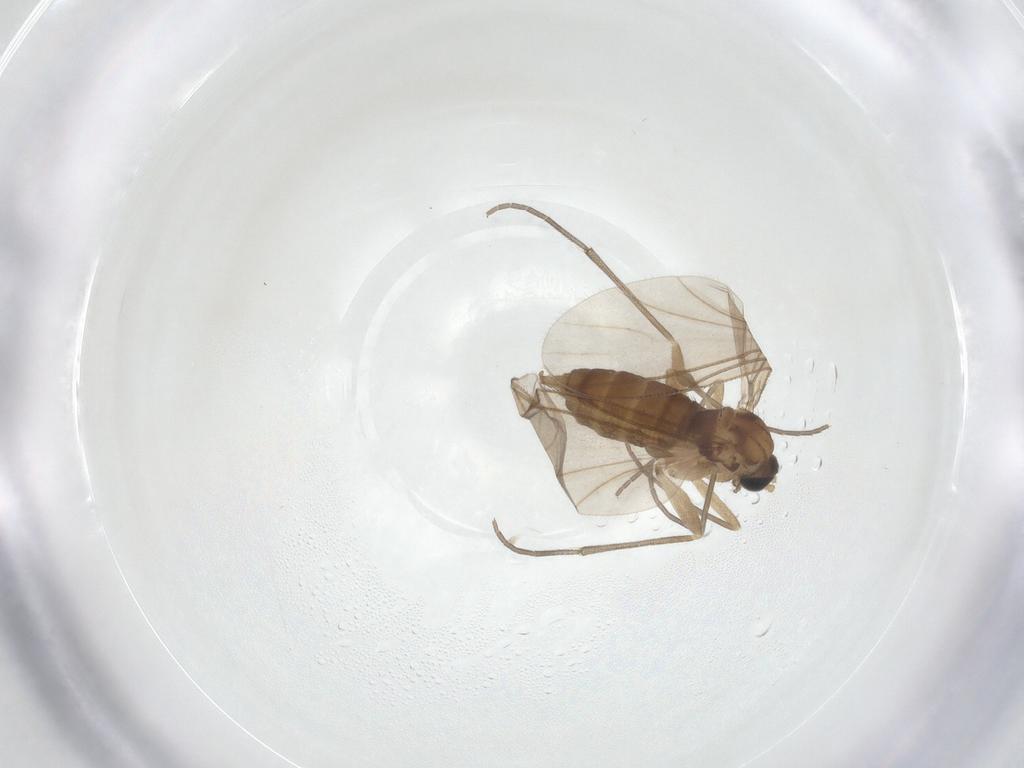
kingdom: Animalia
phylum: Arthropoda
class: Insecta
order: Diptera
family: Sciaridae
